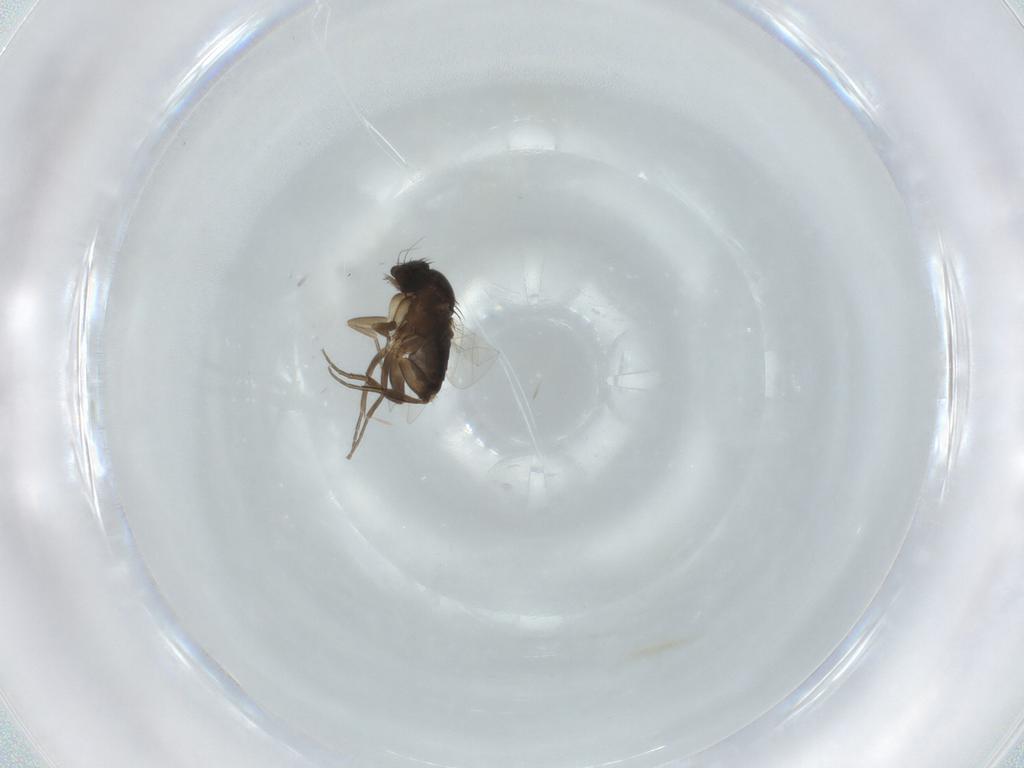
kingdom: Animalia
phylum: Arthropoda
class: Insecta
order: Diptera
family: Phoridae
